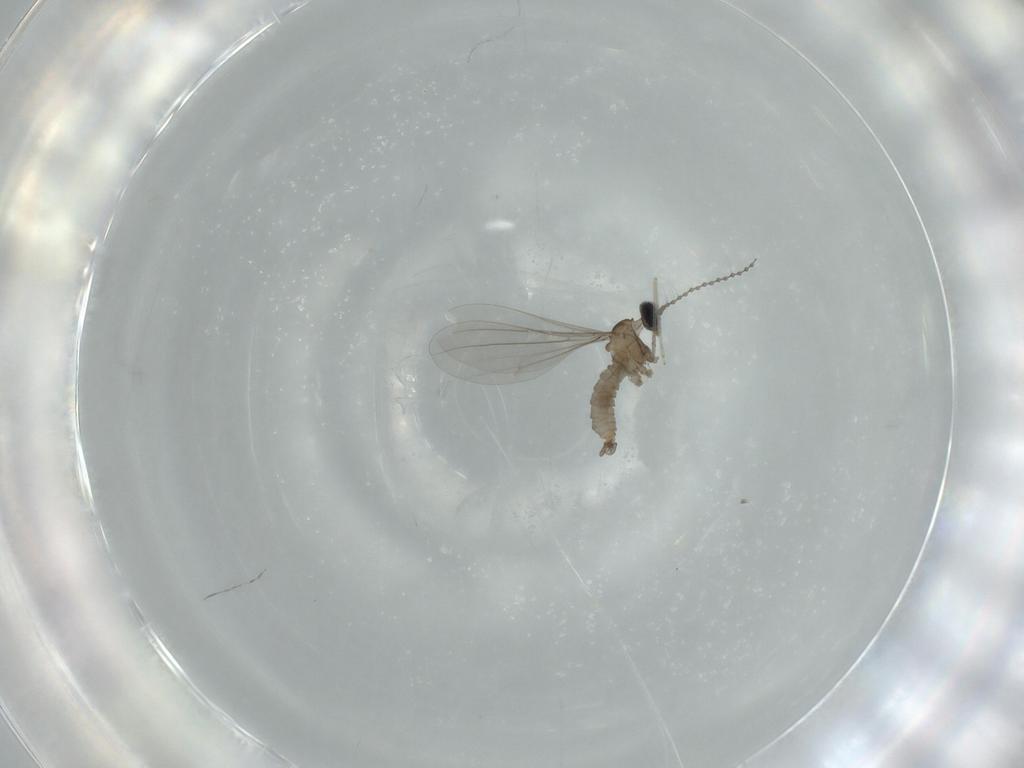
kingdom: Animalia
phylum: Arthropoda
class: Insecta
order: Diptera
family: Cecidomyiidae
